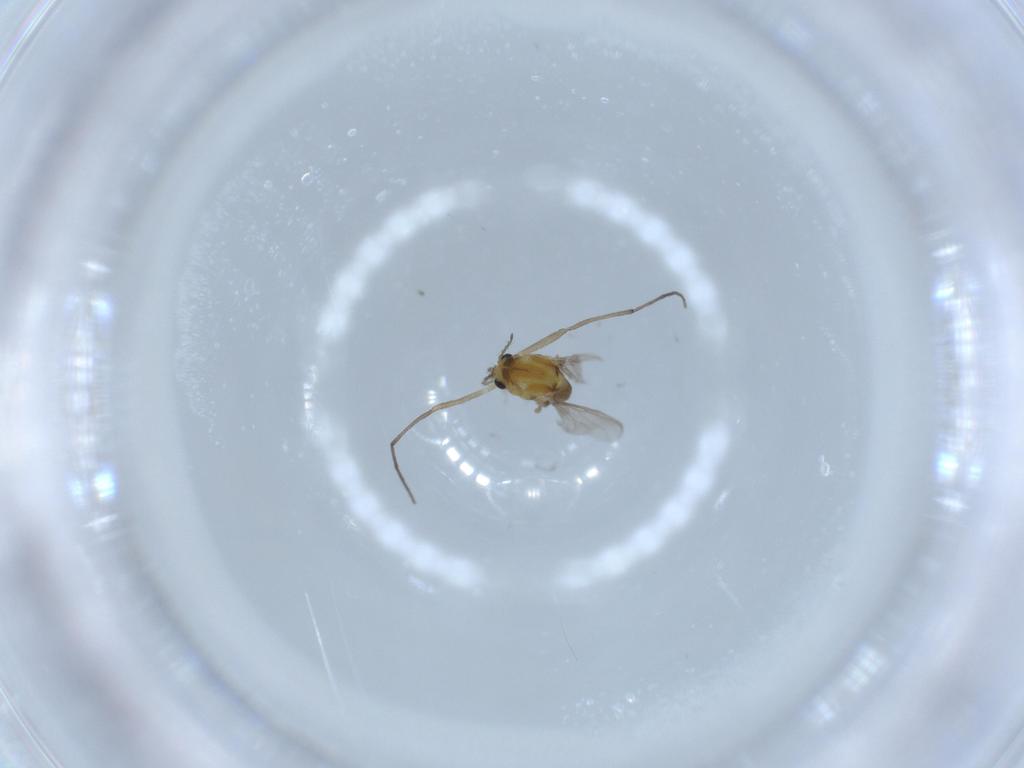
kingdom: Animalia
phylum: Arthropoda
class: Insecta
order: Diptera
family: Chironomidae
